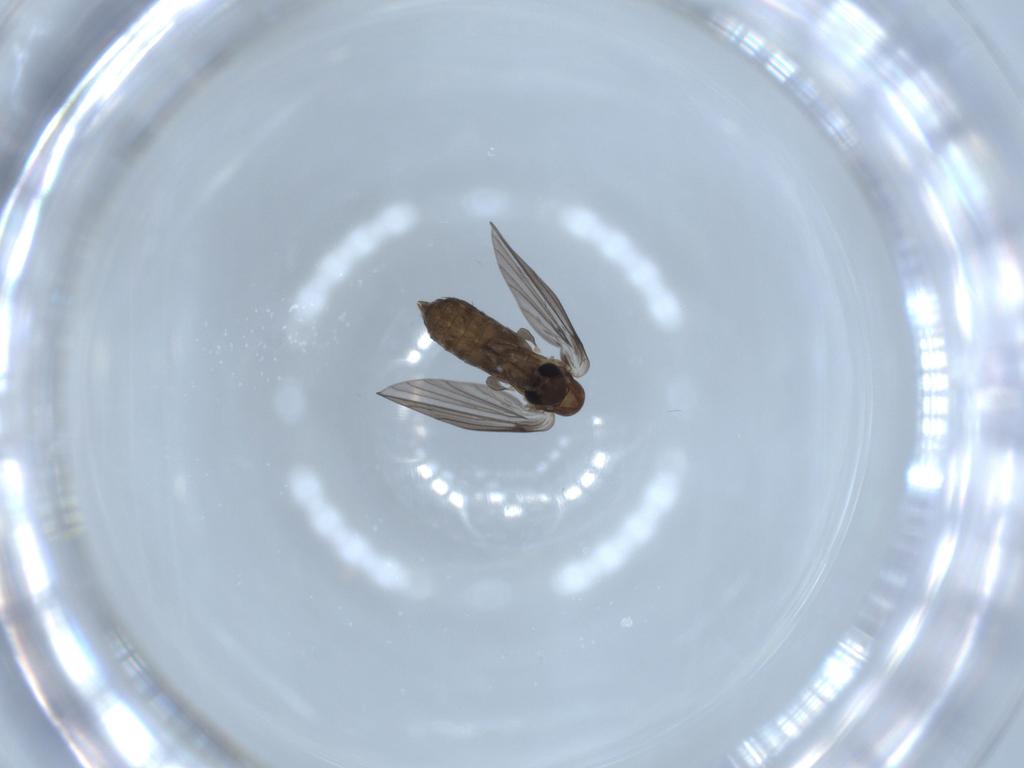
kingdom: Animalia
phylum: Arthropoda
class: Insecta
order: Diptera
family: Psychodidae
